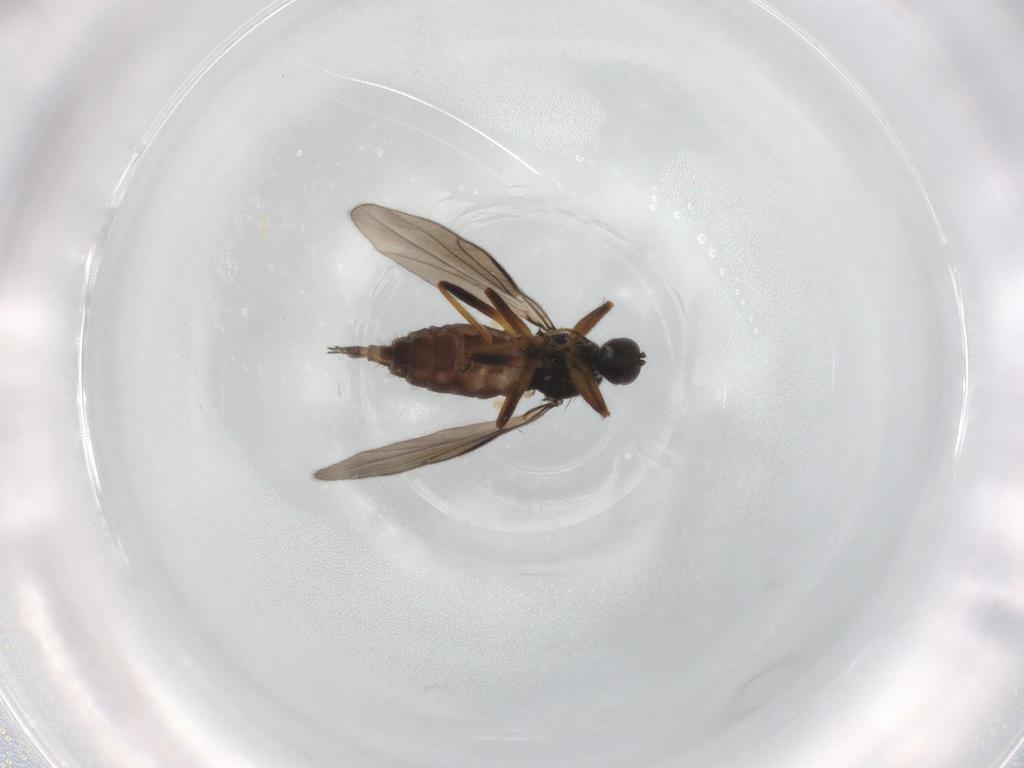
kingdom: Animalia
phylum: Arthropoda
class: Insecta
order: Diptera
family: Hybotidae
